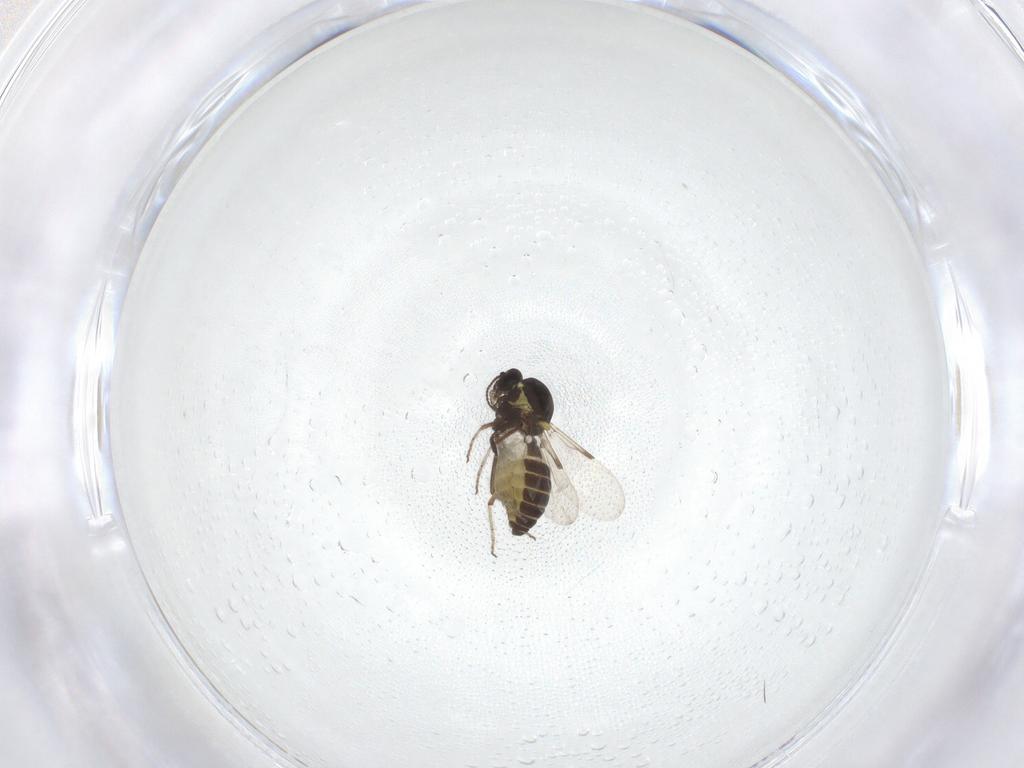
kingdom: Animalia
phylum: Arthropoda
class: Insecta
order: Diptera
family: Ceratopogonidae
